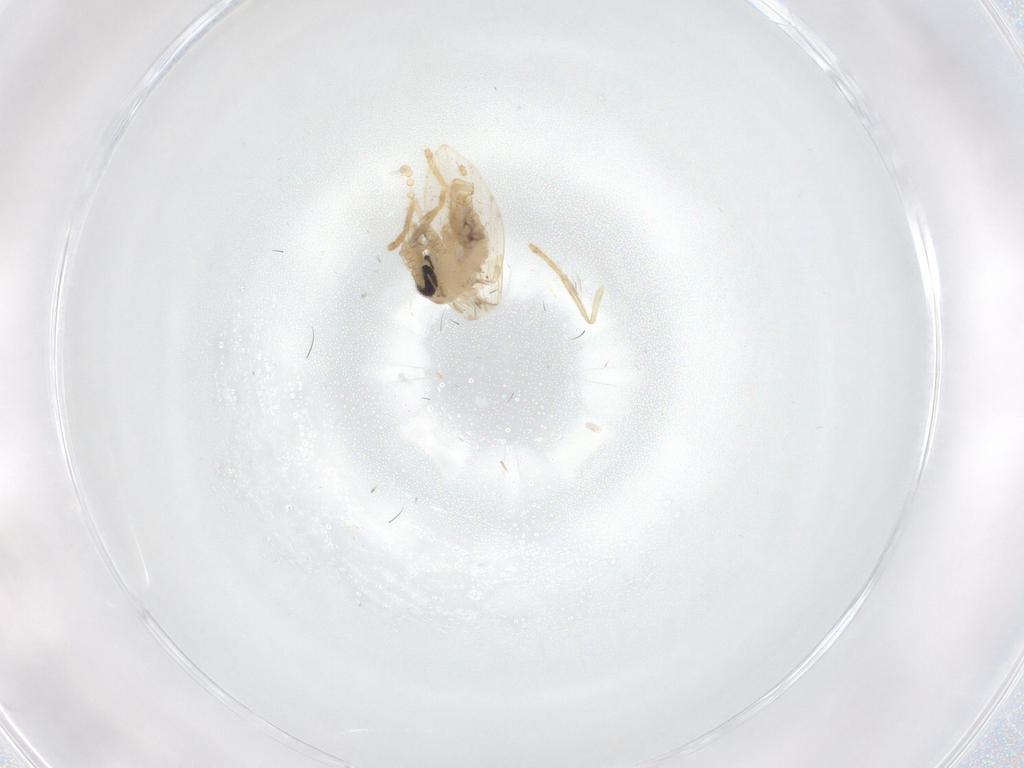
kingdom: Animalia
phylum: Arthropoda
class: Insecta
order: Diptera
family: Psychodidae
